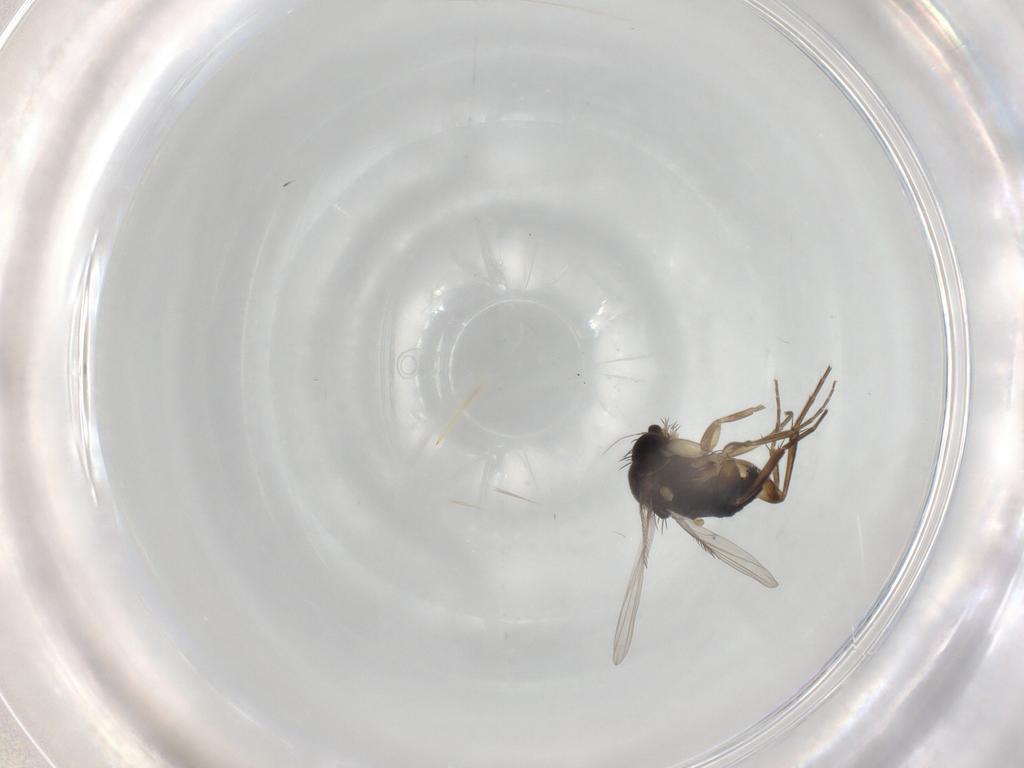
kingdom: Animalia
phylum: Arthropoda
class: Insecta
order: Diptera
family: Phoridae
